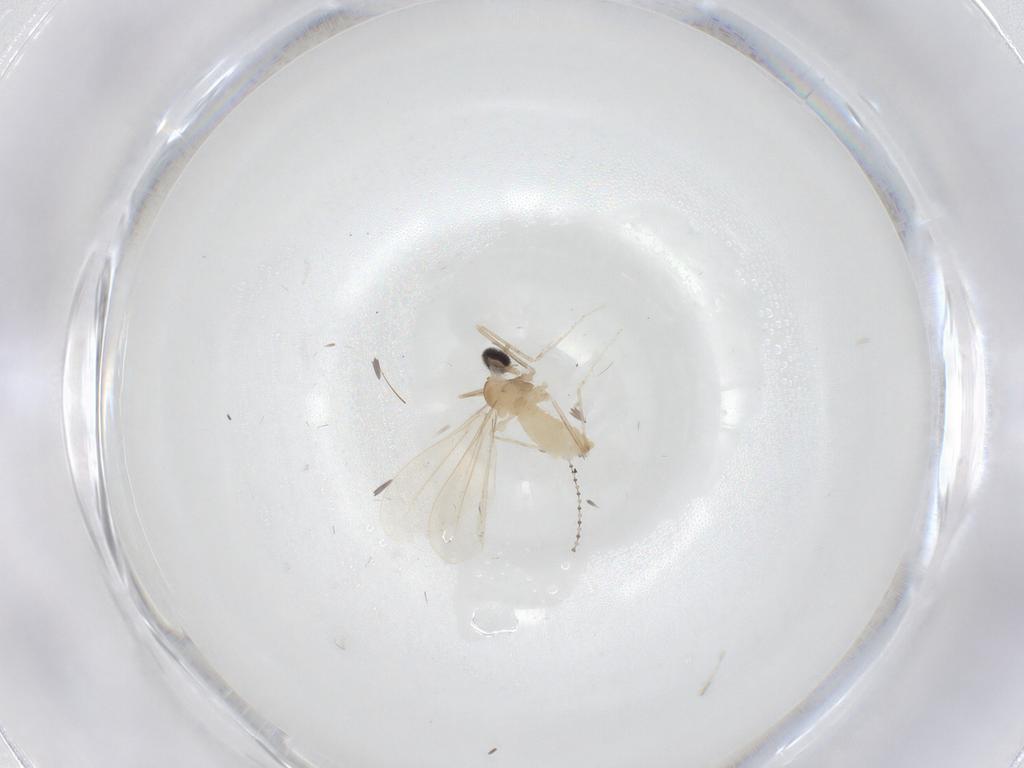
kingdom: Animalia
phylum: Arthropoda
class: Insecta
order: Diptera
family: Cecidomyiidae
